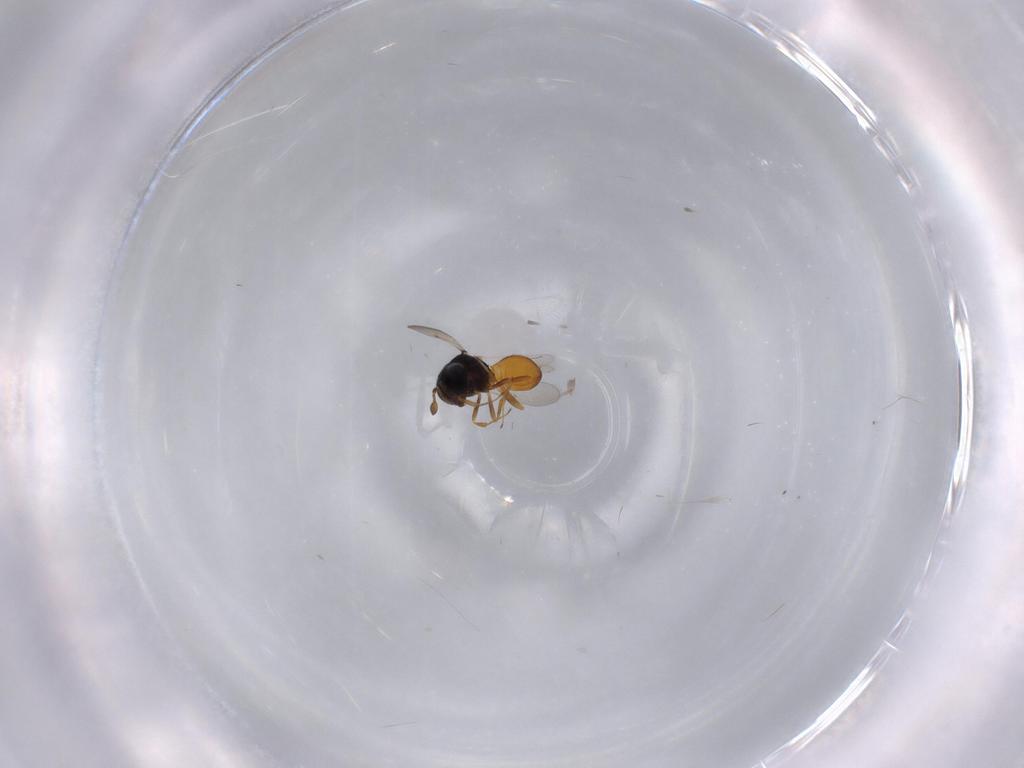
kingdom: Animalia
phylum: Arthropoda
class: Insecta
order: Hymenoptera
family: Scelionidae
